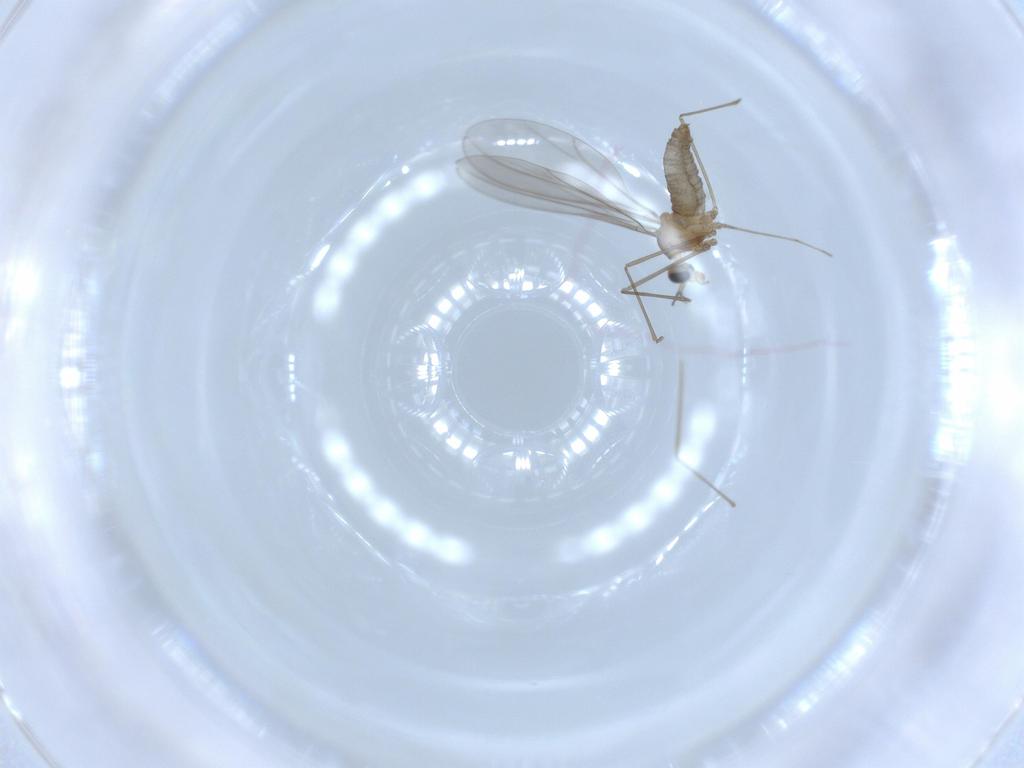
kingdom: Animalia
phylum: Arthropoda
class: Insecta
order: Diptera
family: Cecidomyiidae
